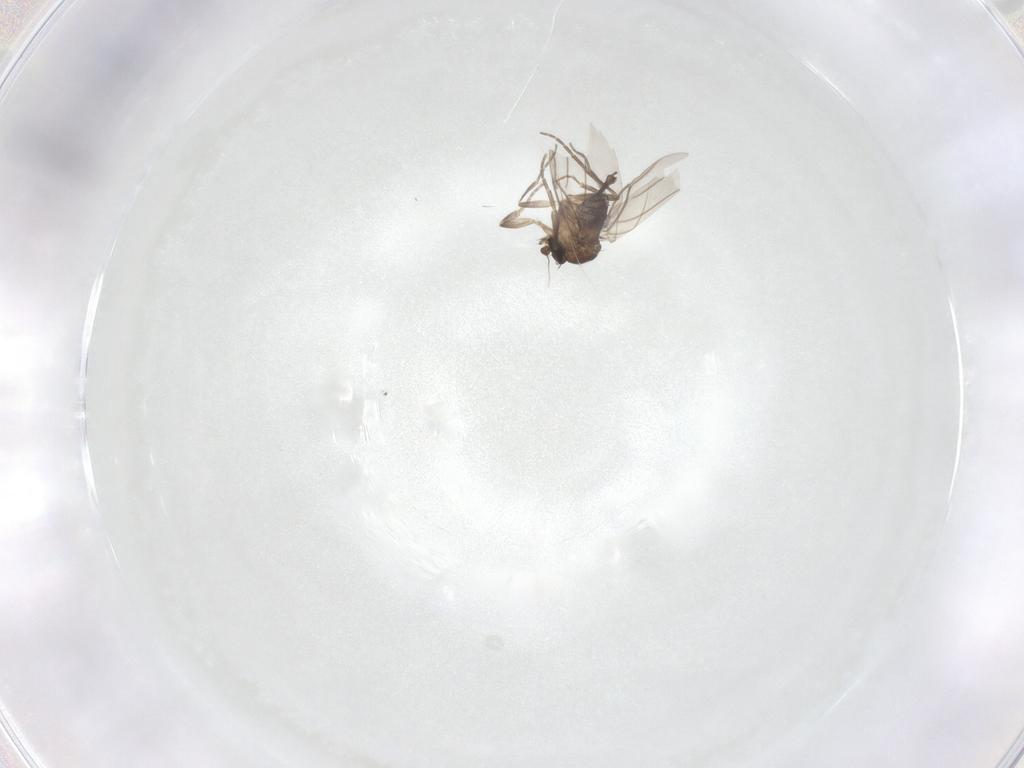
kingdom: Animalia
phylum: Arthropoda
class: Insecta
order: Diptera
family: Phoridae
